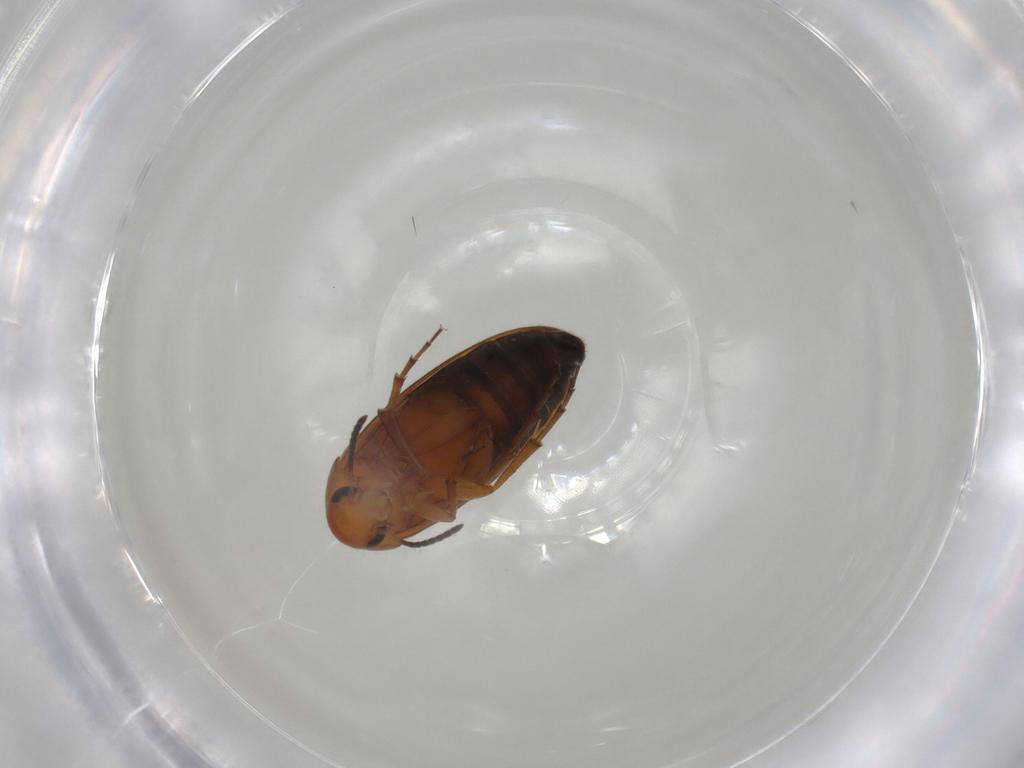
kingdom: Animalia
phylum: Arthropoda
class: Insecta
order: Coleoptera
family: Scraptiidae
